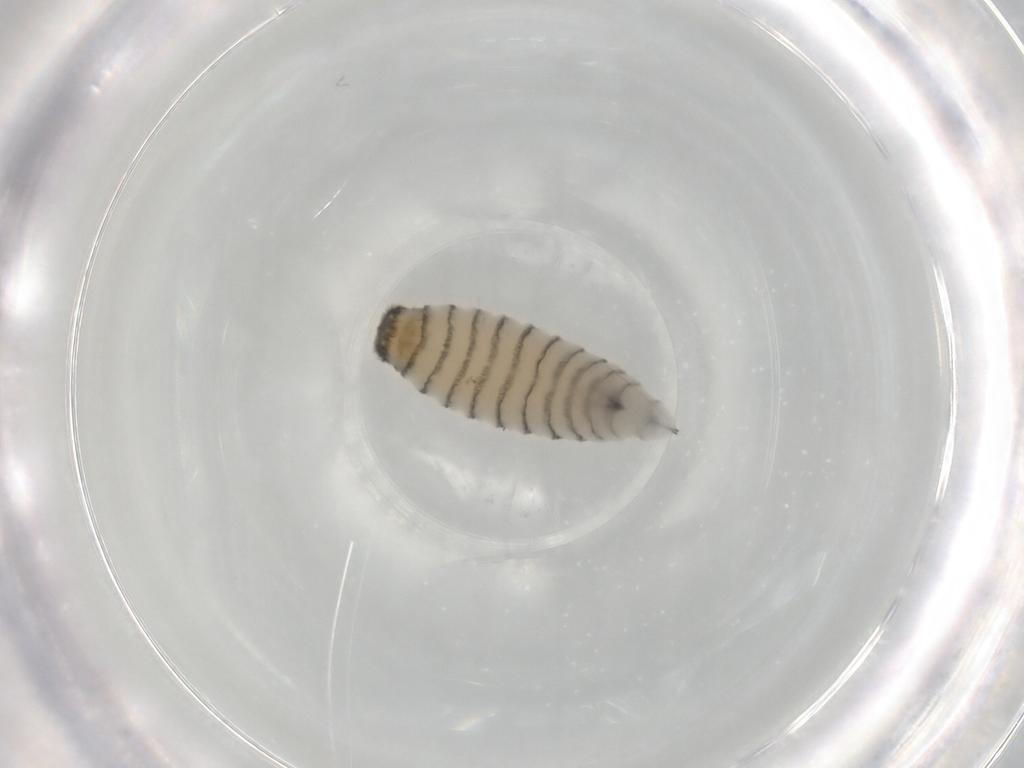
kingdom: Animalia
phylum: Arthropoda
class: Insecta
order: Diptera
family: Sarcophagidae
